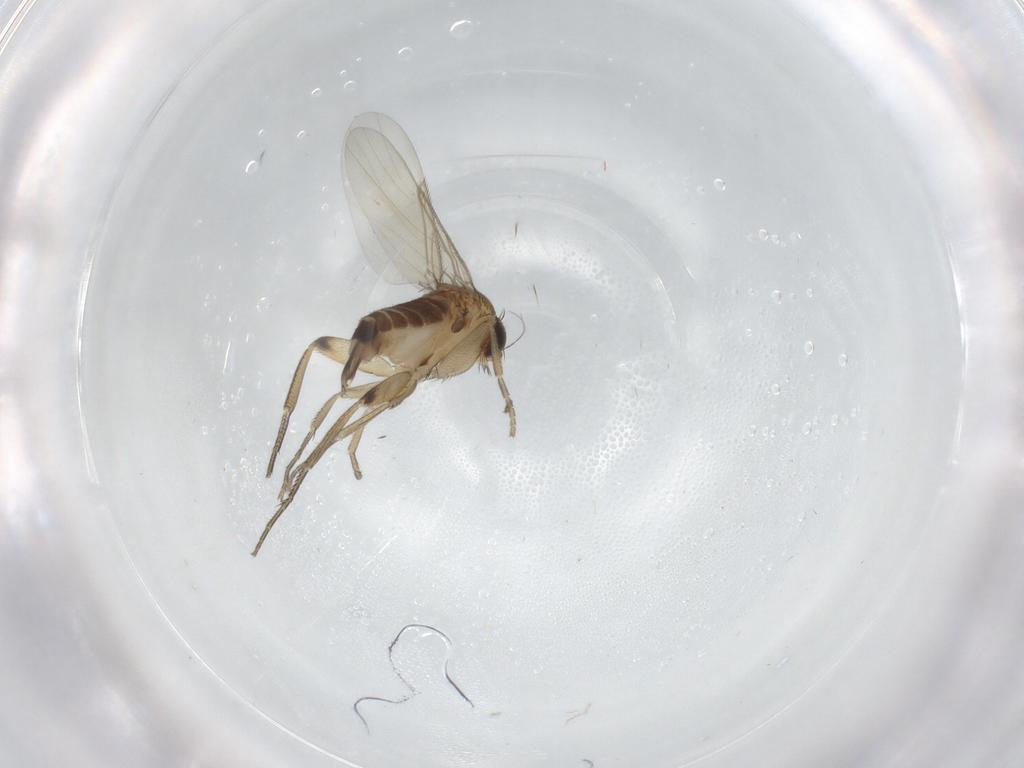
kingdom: Animalia
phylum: Arthropoda
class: Insecta
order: Diptera
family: Phoridae
